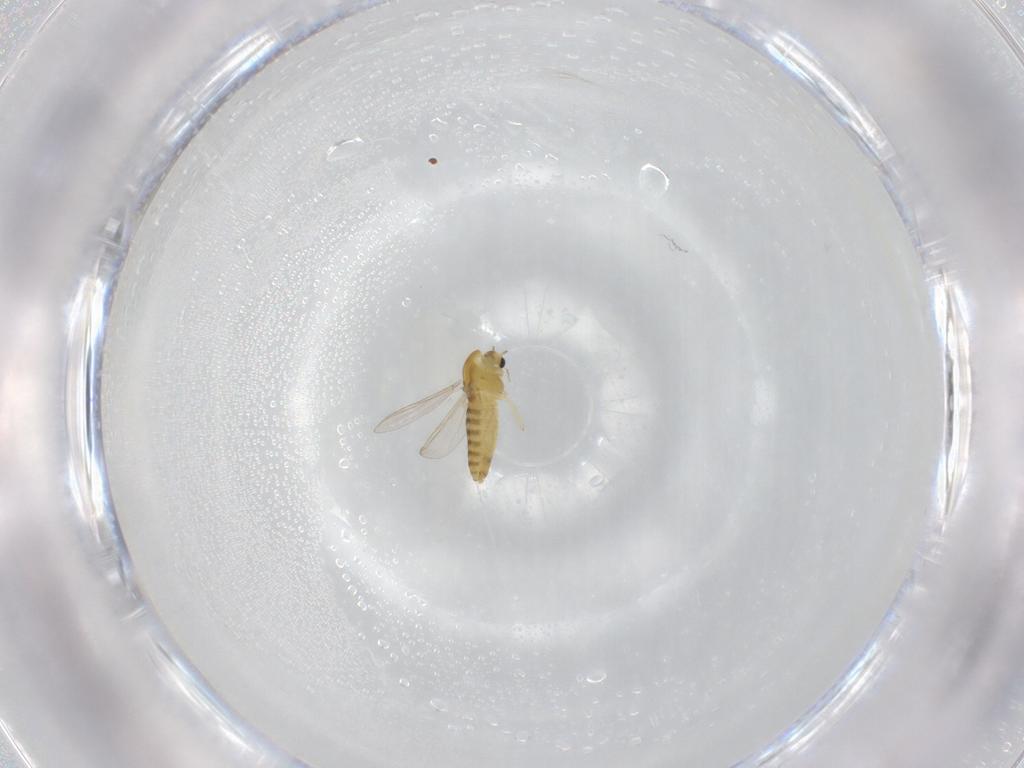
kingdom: Animalia
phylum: Arthropoda
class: Insecta
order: Diptera
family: Chironomidae
